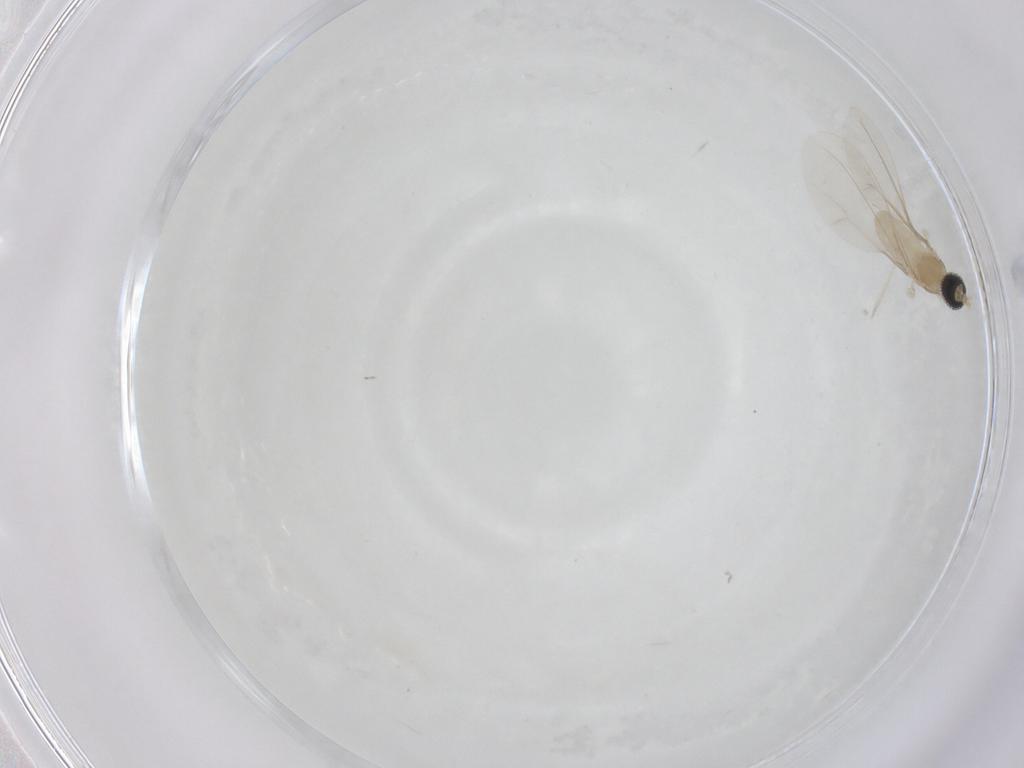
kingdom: Animalia
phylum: Arthropoda
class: Insecta
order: Diptera
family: Cecidomyiidae
